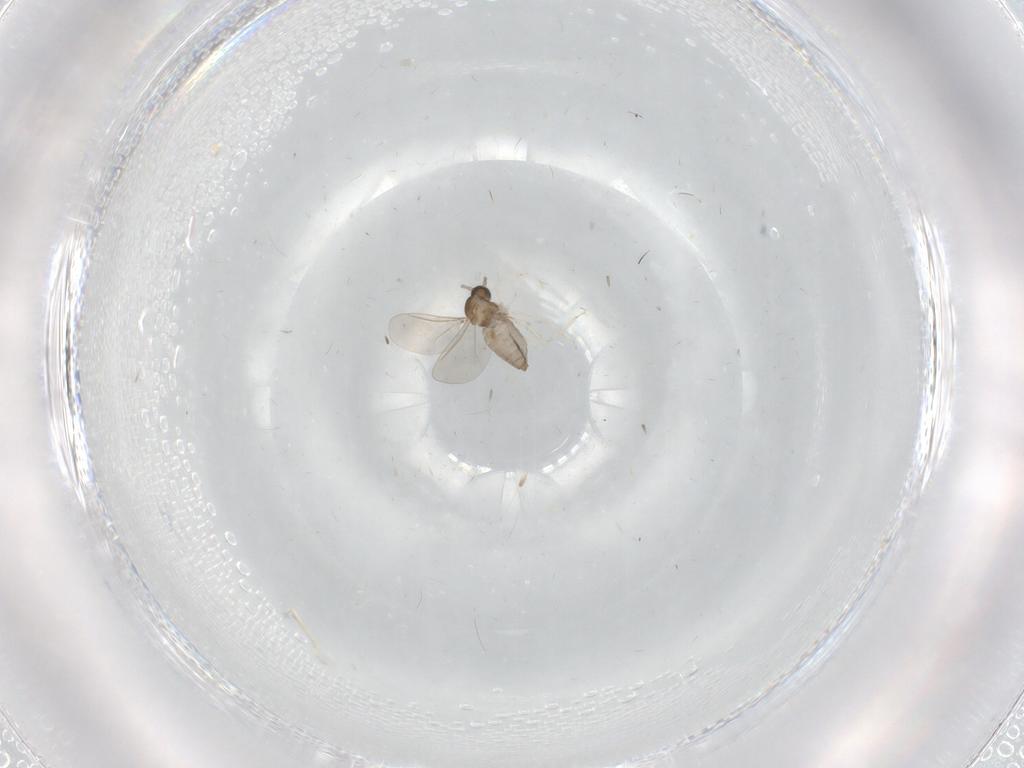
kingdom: Animalia
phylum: Arthropoda
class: Insecta
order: Diptera
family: Cecidomyiidae
